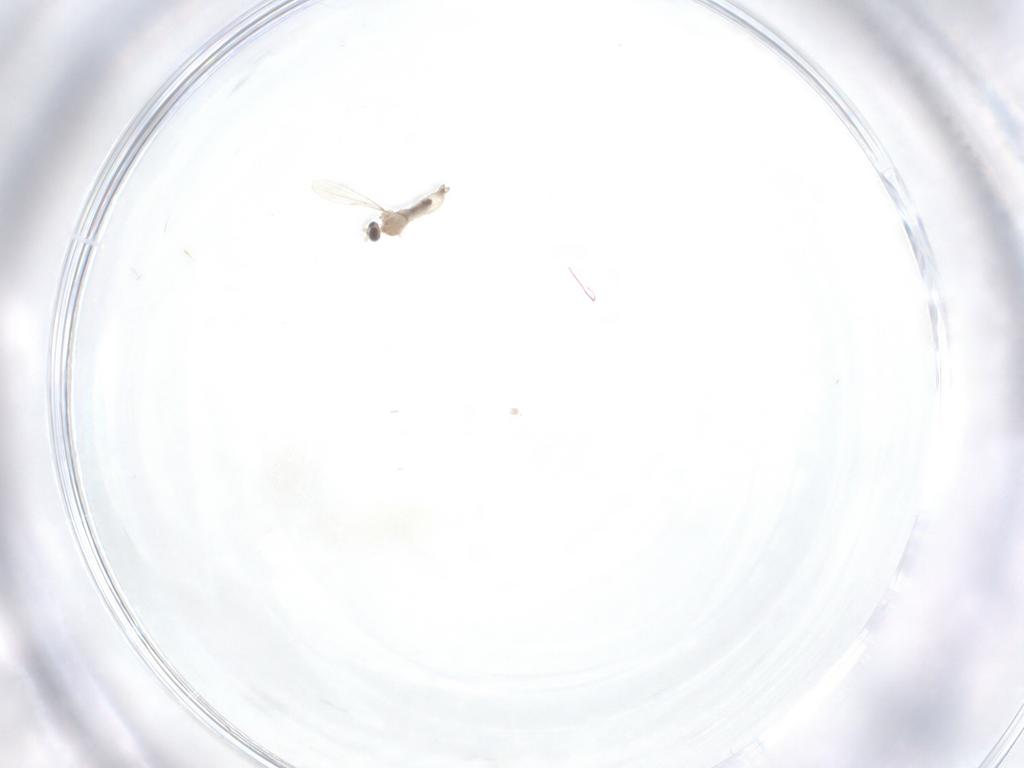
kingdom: Animalia
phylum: Arthropoda
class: Insecta
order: Diptera
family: Cecidomyiidae
